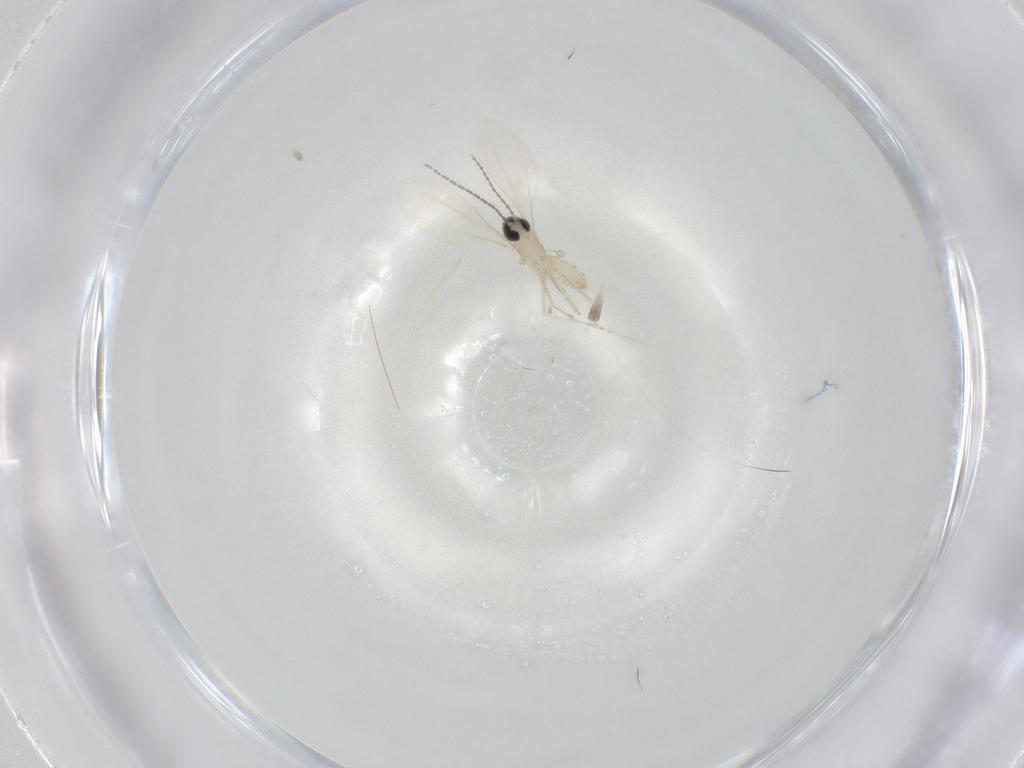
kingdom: Animalia
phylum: Arthropoda
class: Insecta
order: Diptera
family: Cecidomyiidae
